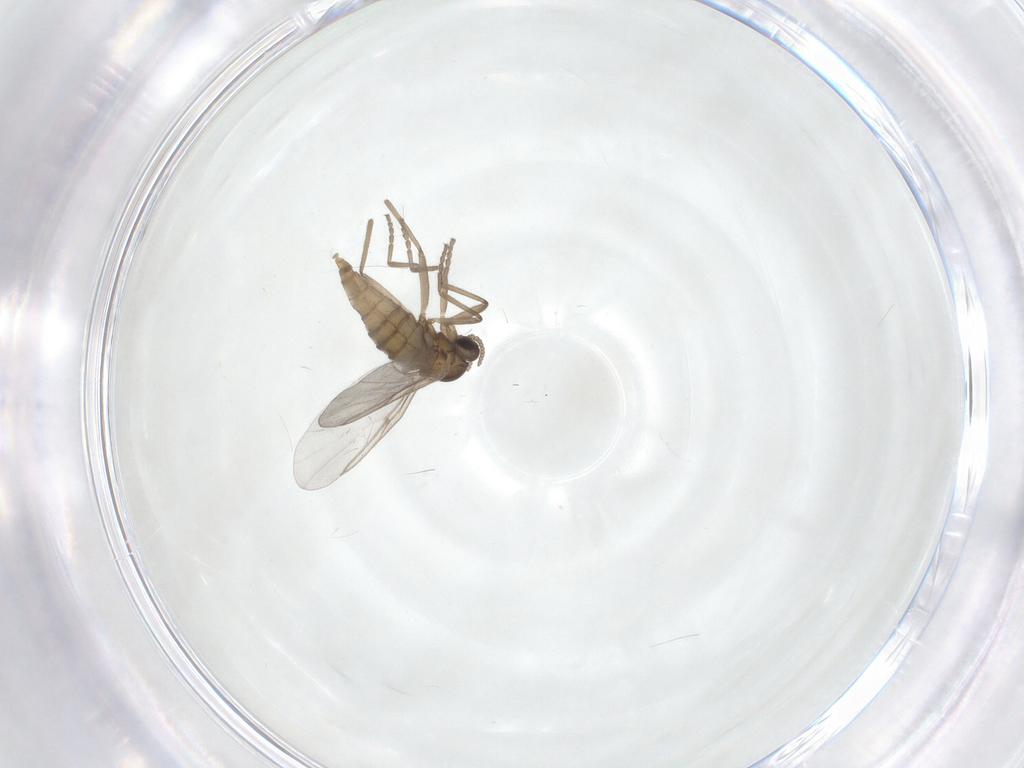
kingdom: Animalia
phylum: Arthropoda
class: Insecta
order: Diptera
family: Cecidomyiidae
